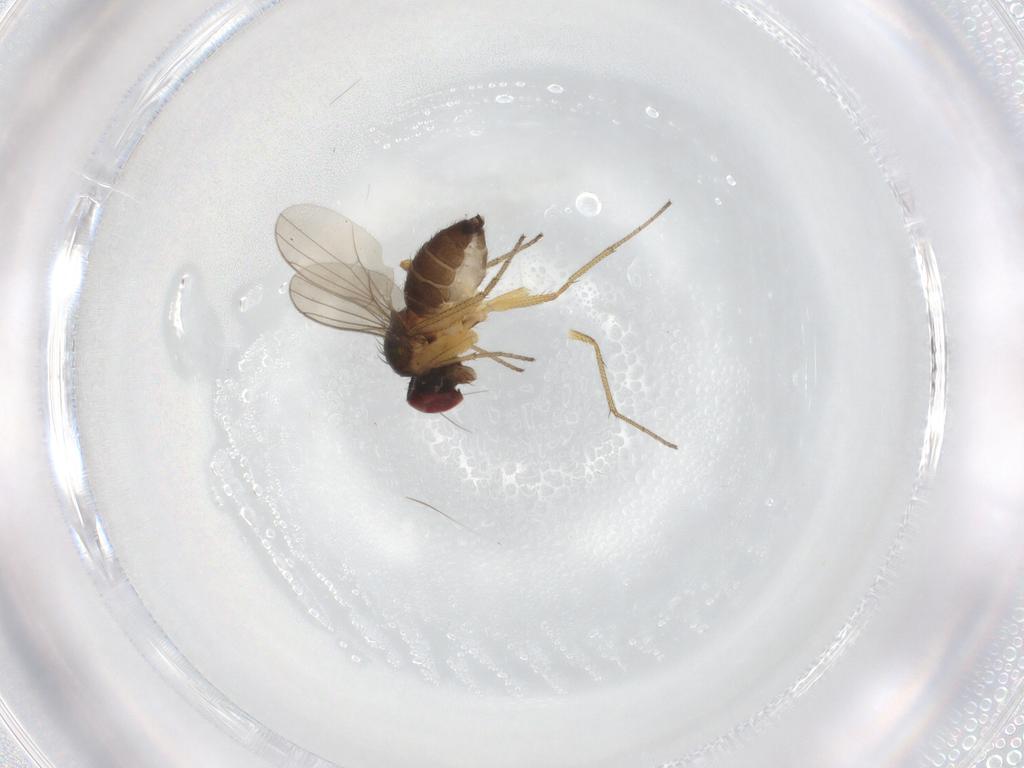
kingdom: Animalia
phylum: Arthropoda
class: Insecta
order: Diptera
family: Dolichopodidae
